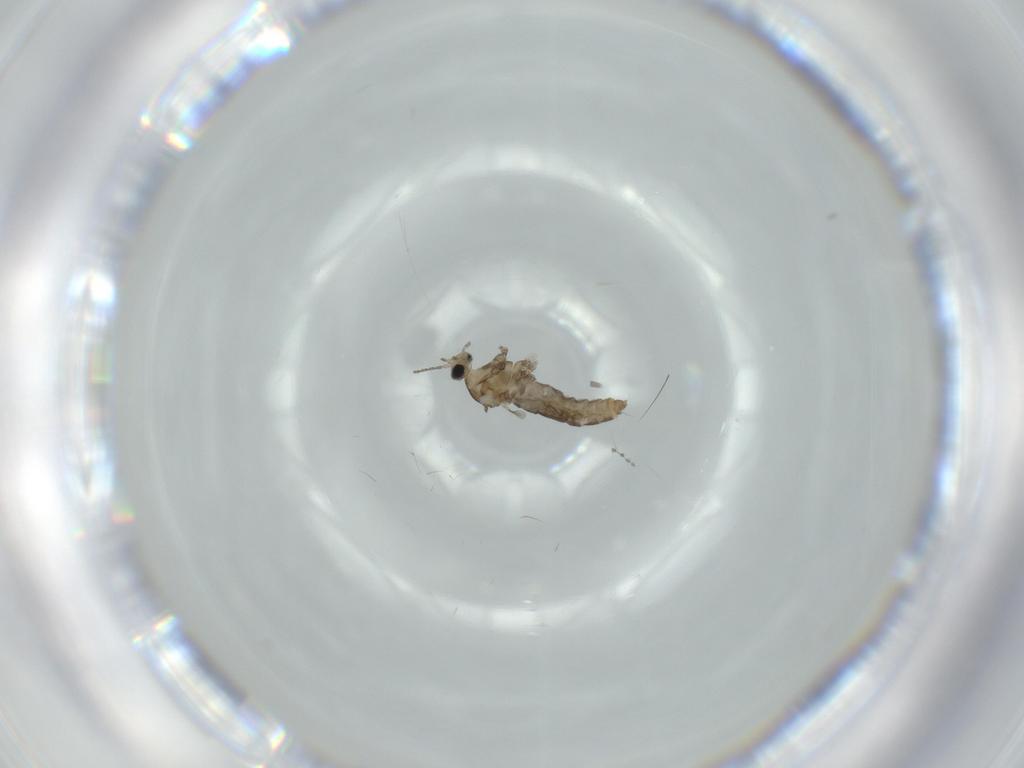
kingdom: Animalia
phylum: Arthropoda
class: Insecta
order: Diptera
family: Cecidomyiidae
